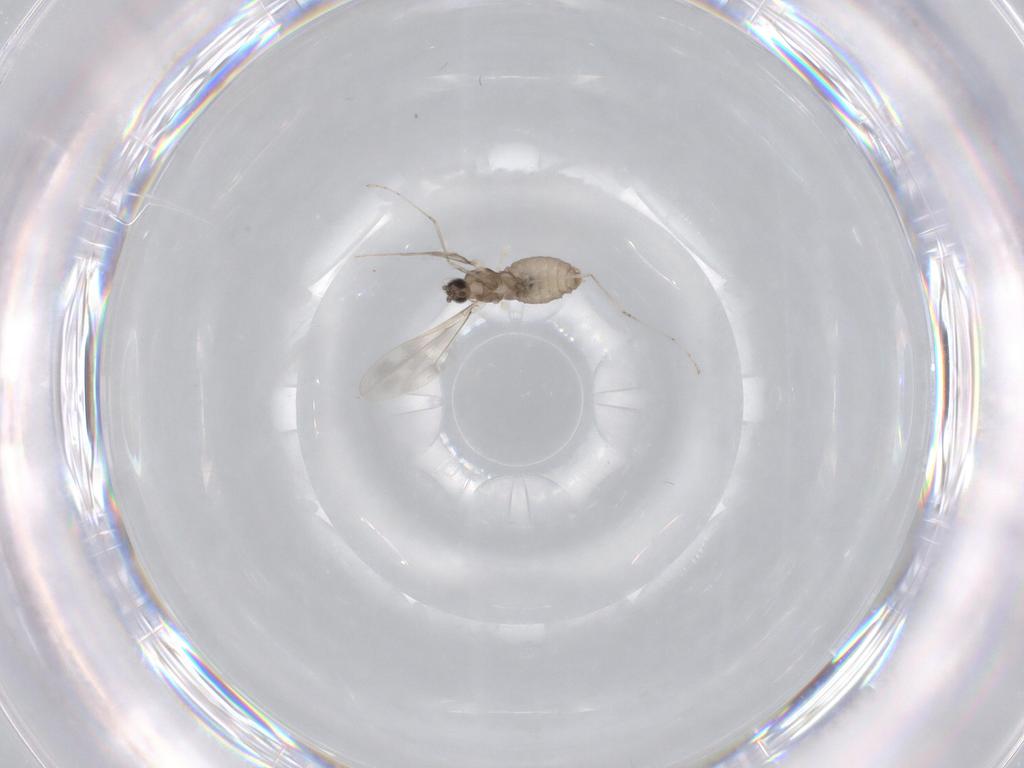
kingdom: Animalia
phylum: Arthropoda
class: Insecta
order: Diptera
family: Cecidomyiidae
